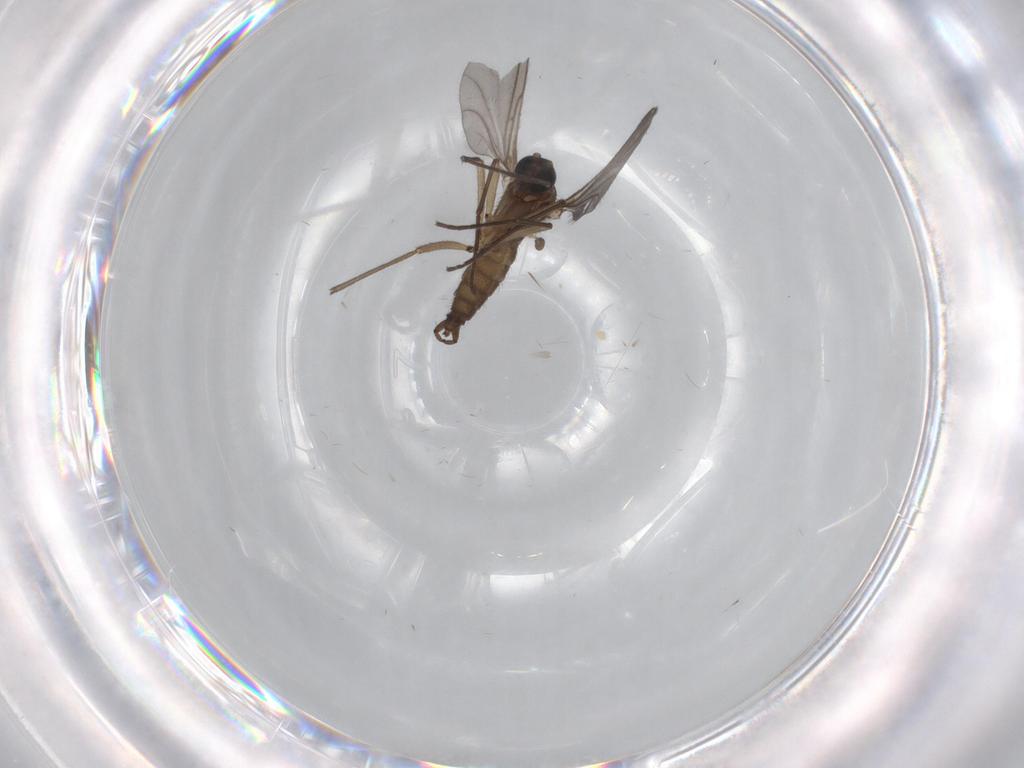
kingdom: Animalia
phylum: Arthropoda
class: Insecta
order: Diptera
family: Sciaridae
